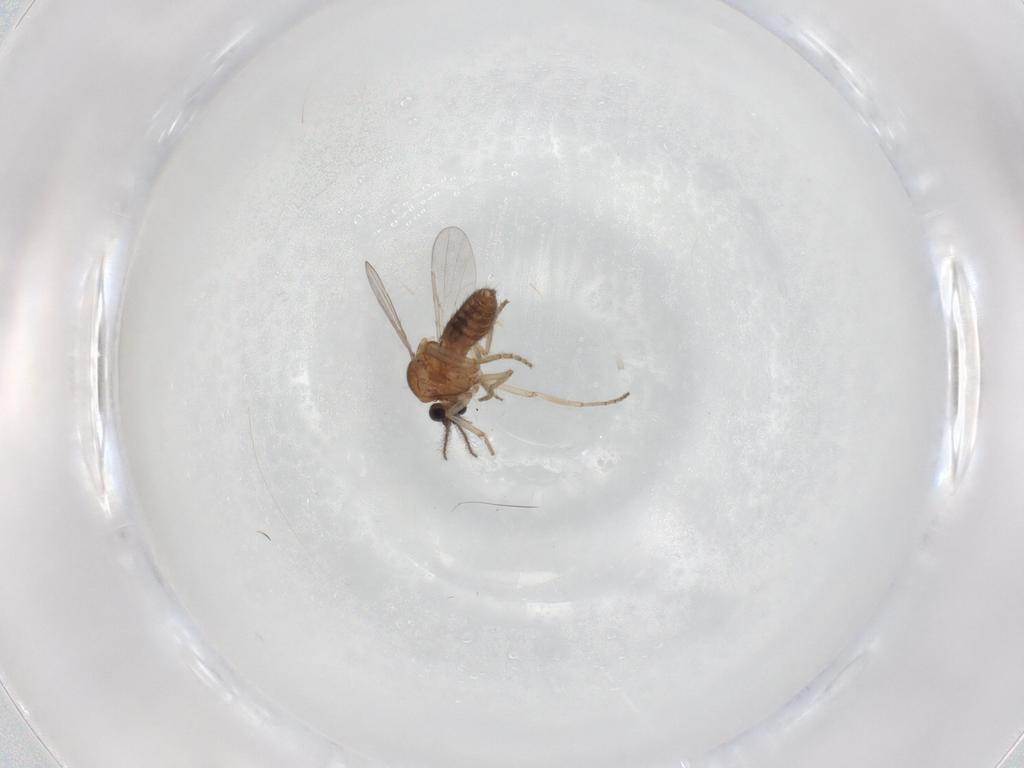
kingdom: Animalia
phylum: Arthropoda
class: Insecta
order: Diptera
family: Ceratopogonidae
